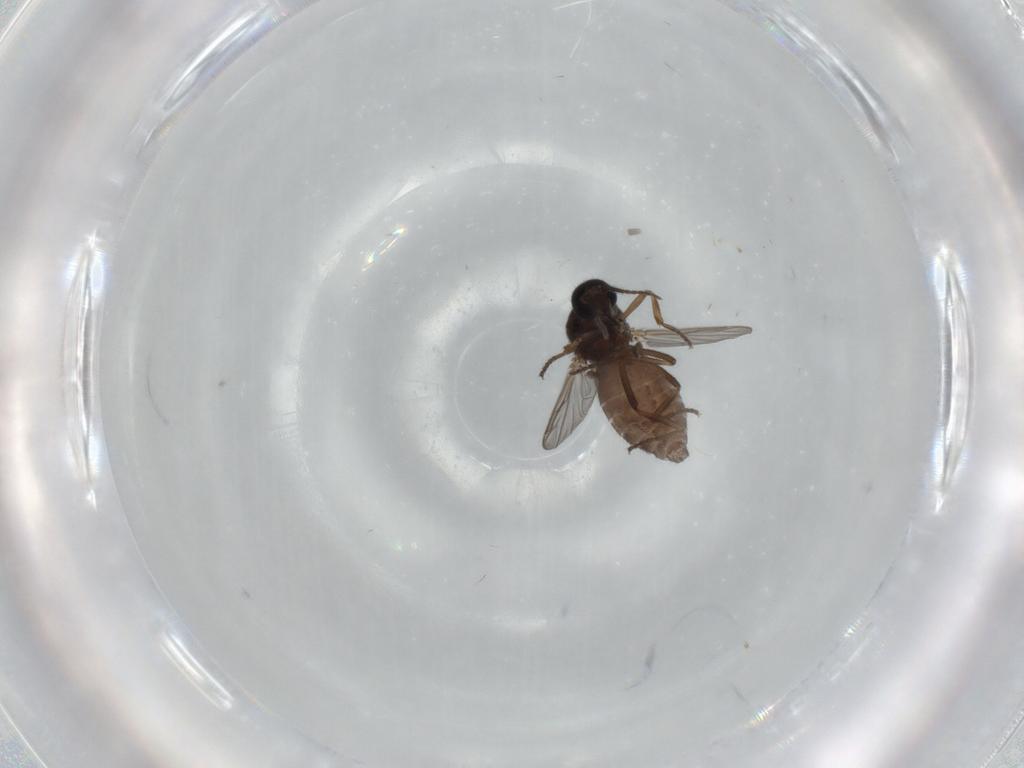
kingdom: Animalia
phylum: Arthropoda
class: Insecta
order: Diptera
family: Ceratopogonidae
